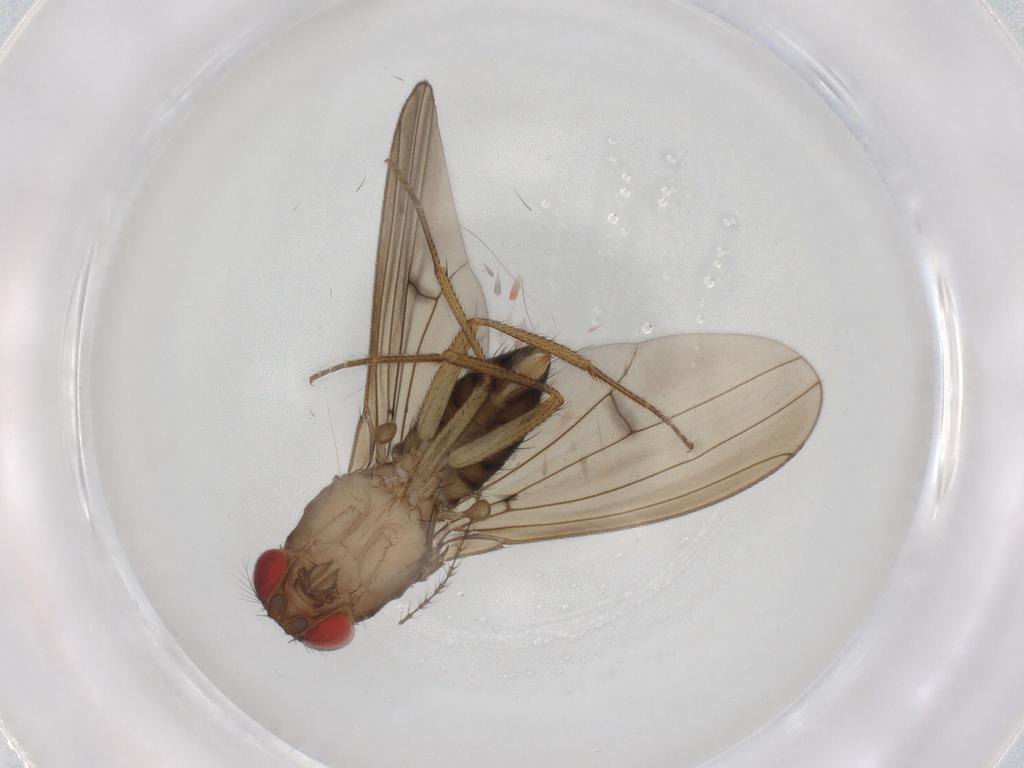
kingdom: Animalia
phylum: Arthropoda
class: Insecta
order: Diptera
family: Drosophilidae
